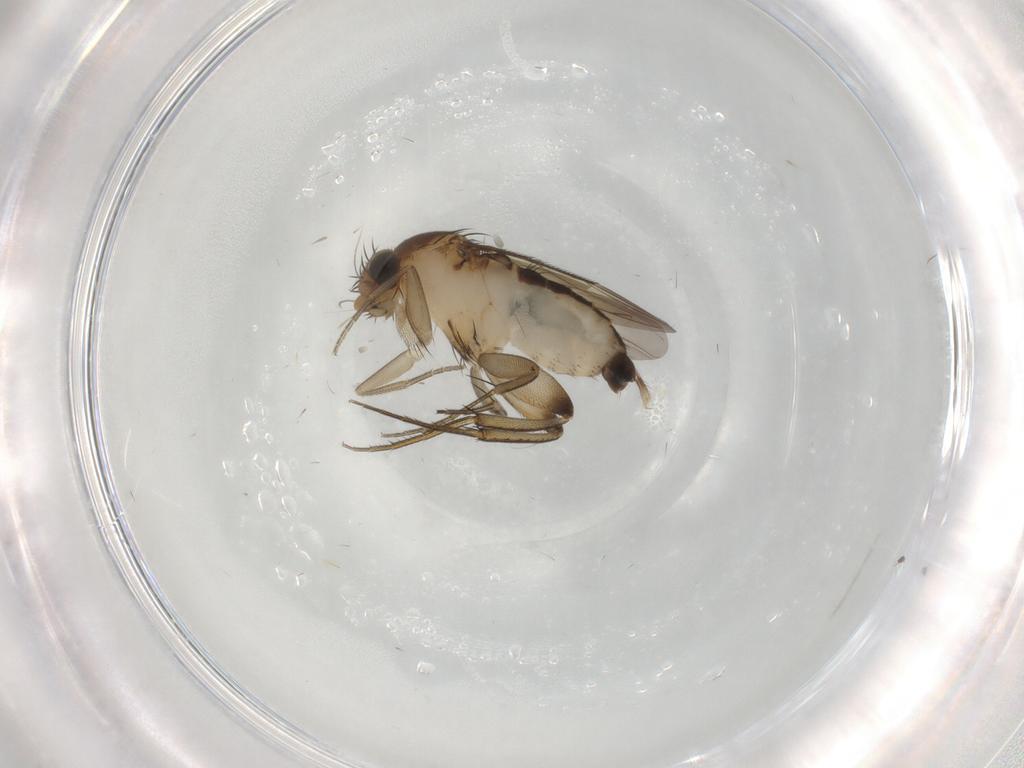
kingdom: Animalia
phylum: Arthropoda
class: Insecta
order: Diptera
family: Phoridae
